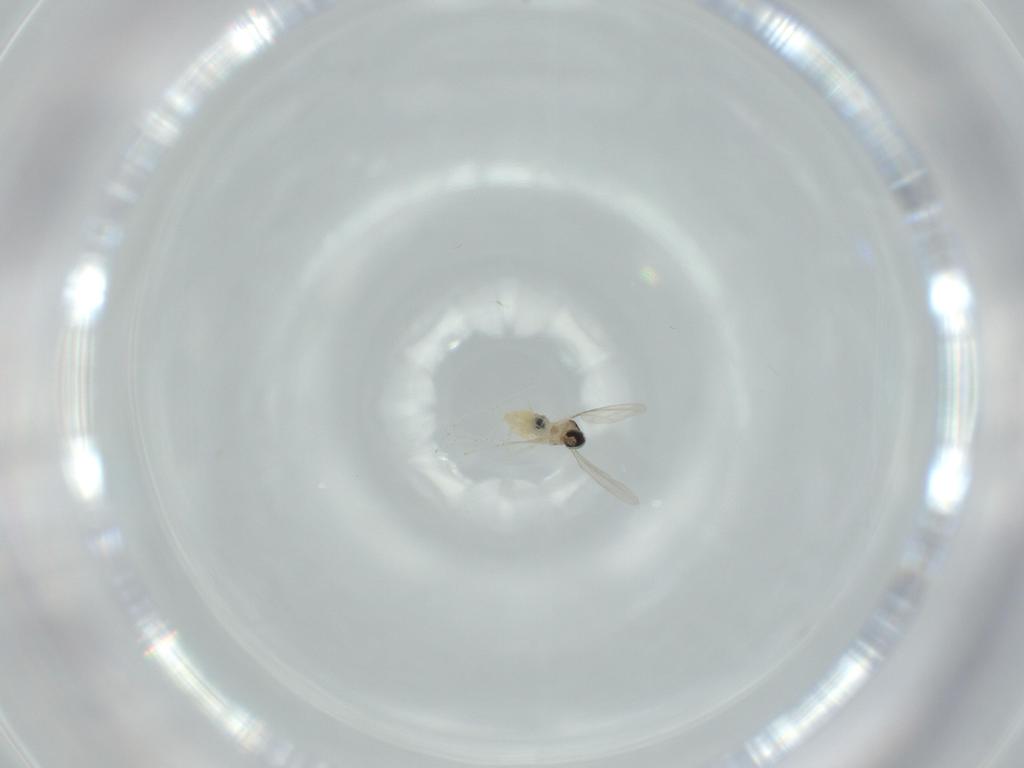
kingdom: Animalia
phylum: Arthropoda
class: Insecta
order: Diptera
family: Cecidomyiidae
